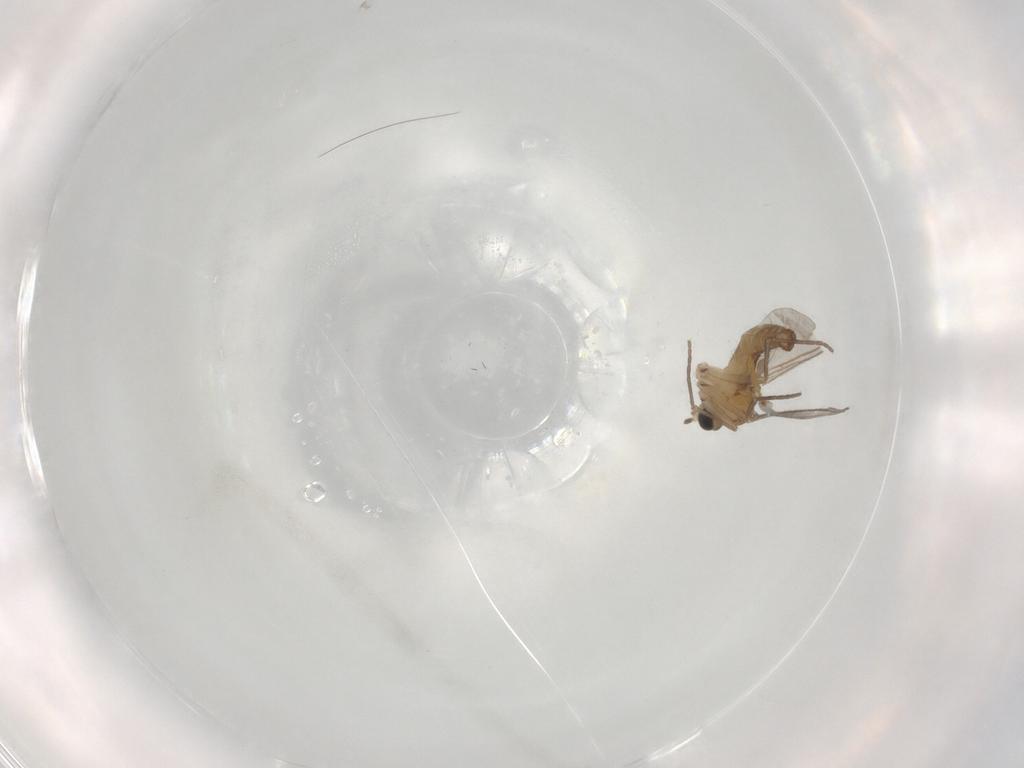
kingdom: Animalia
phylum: Arthropoda
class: Insecta
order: Diptera
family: Sciaridae
